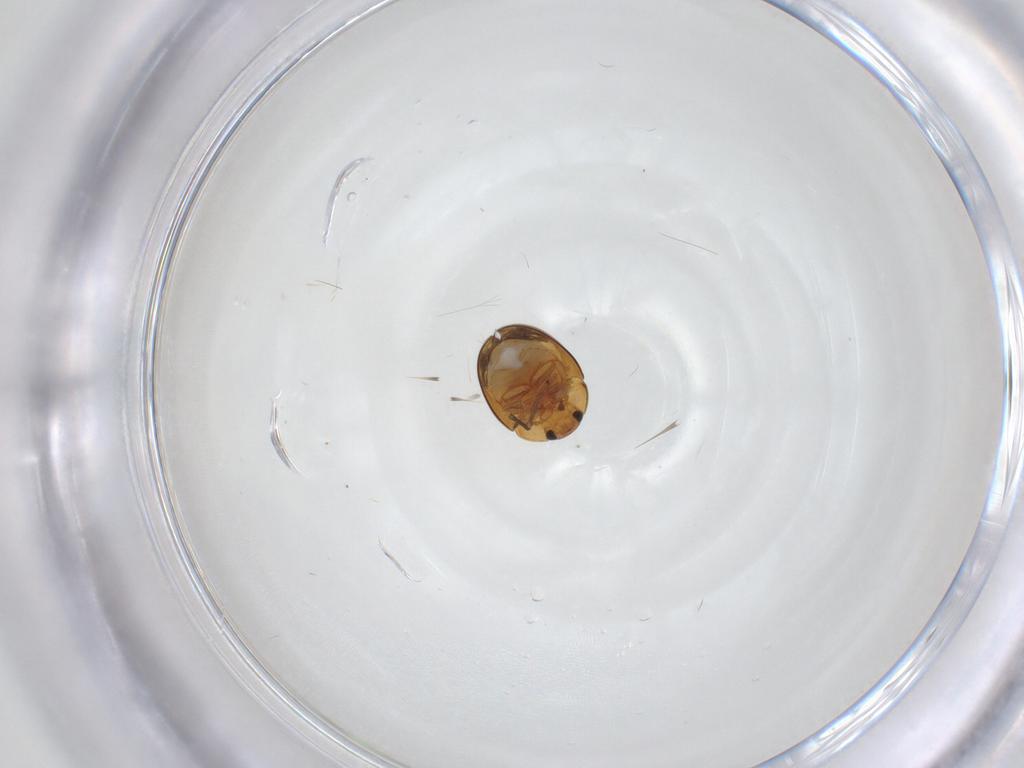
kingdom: Animalia
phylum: Arthropoda
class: Insecta
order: Coleoptera
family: Phalacridae
